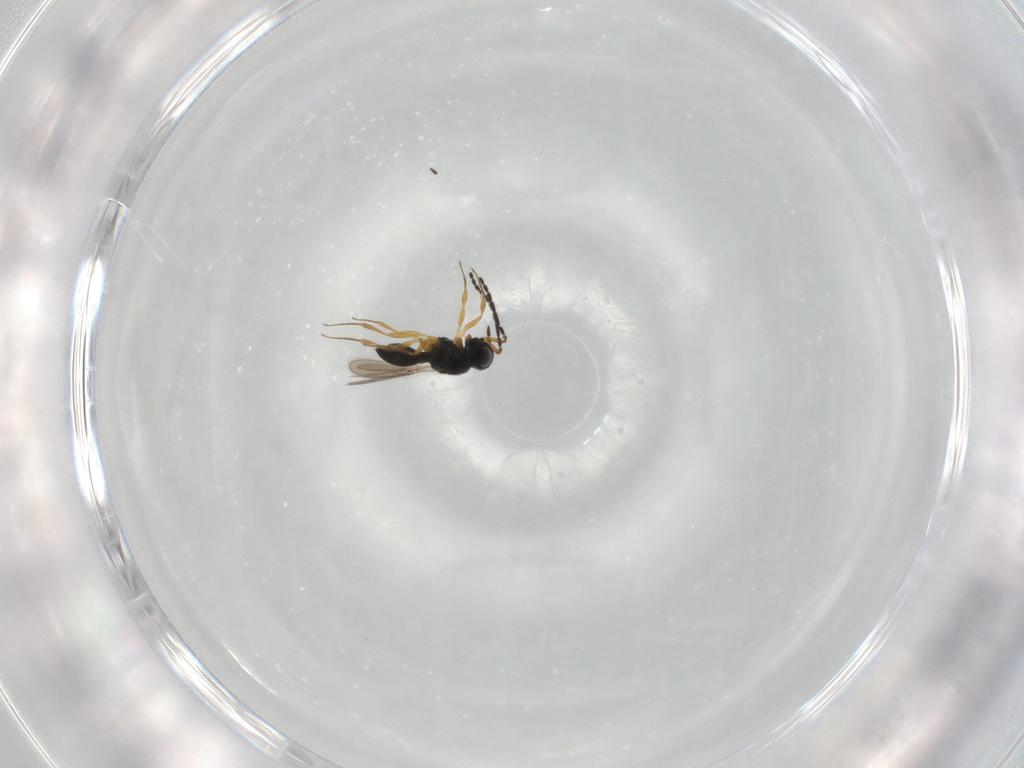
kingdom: Animalia
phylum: Arthropoda
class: Insecta
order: Hymenoptera
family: Scelionidae
